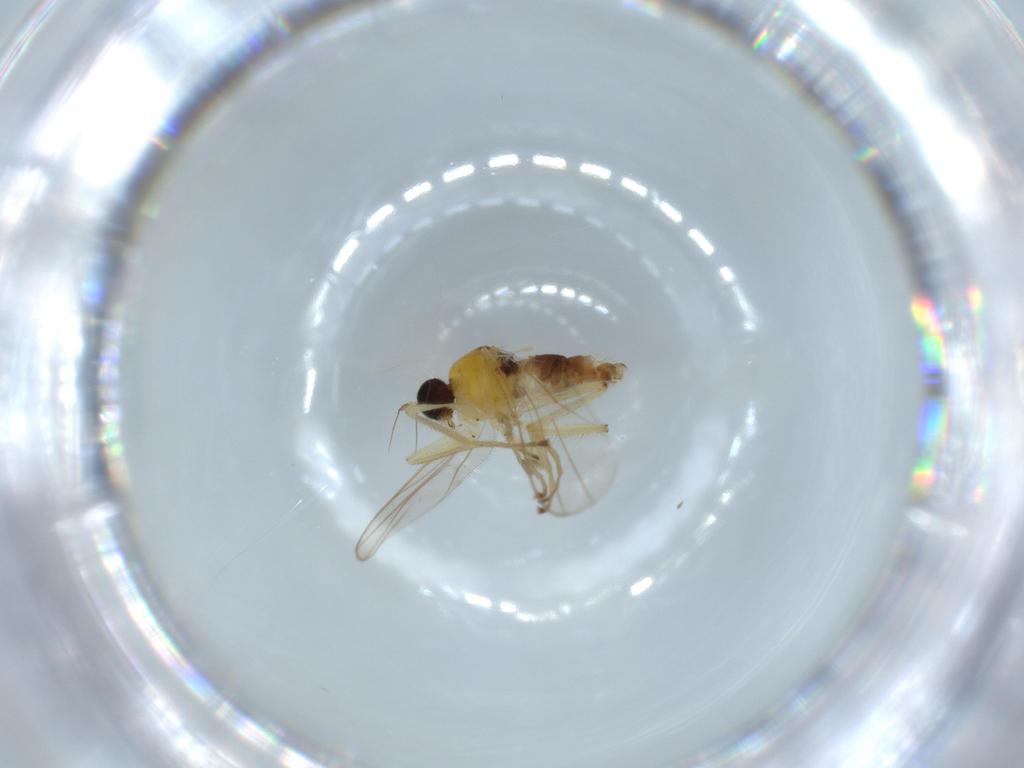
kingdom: Animalia
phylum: Arthropoda
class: Insecta
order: Diptera
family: Hybotidae
